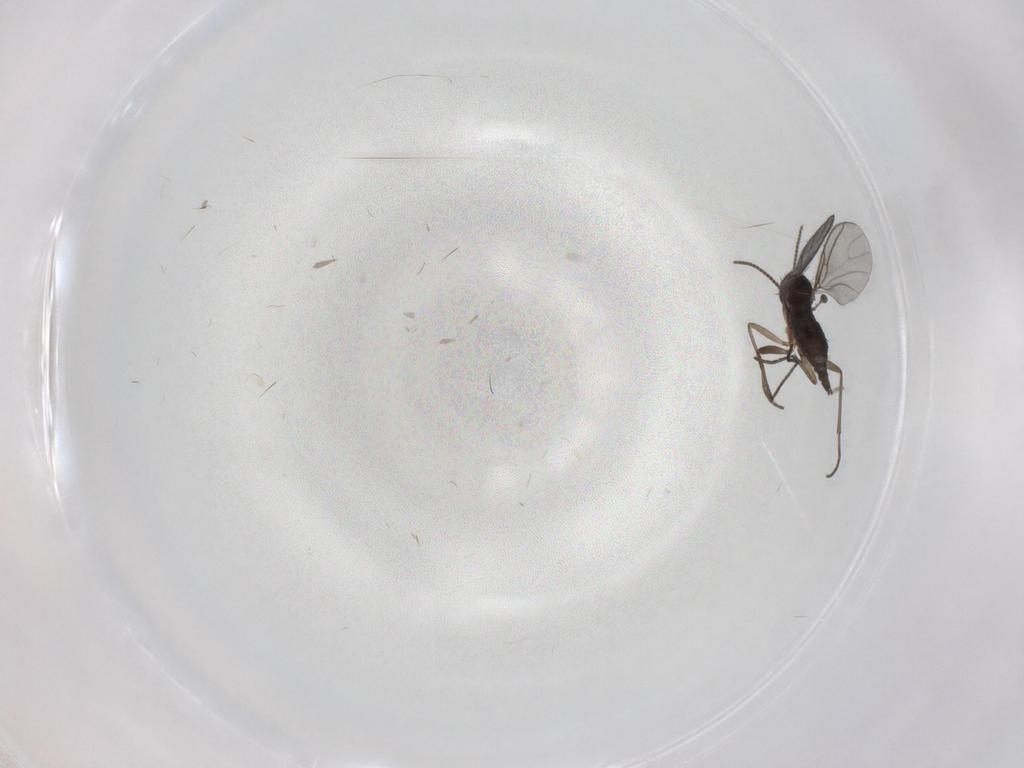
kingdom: Animalia
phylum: Arthropoda
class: Insecta
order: Diptera
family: Sciaridae
